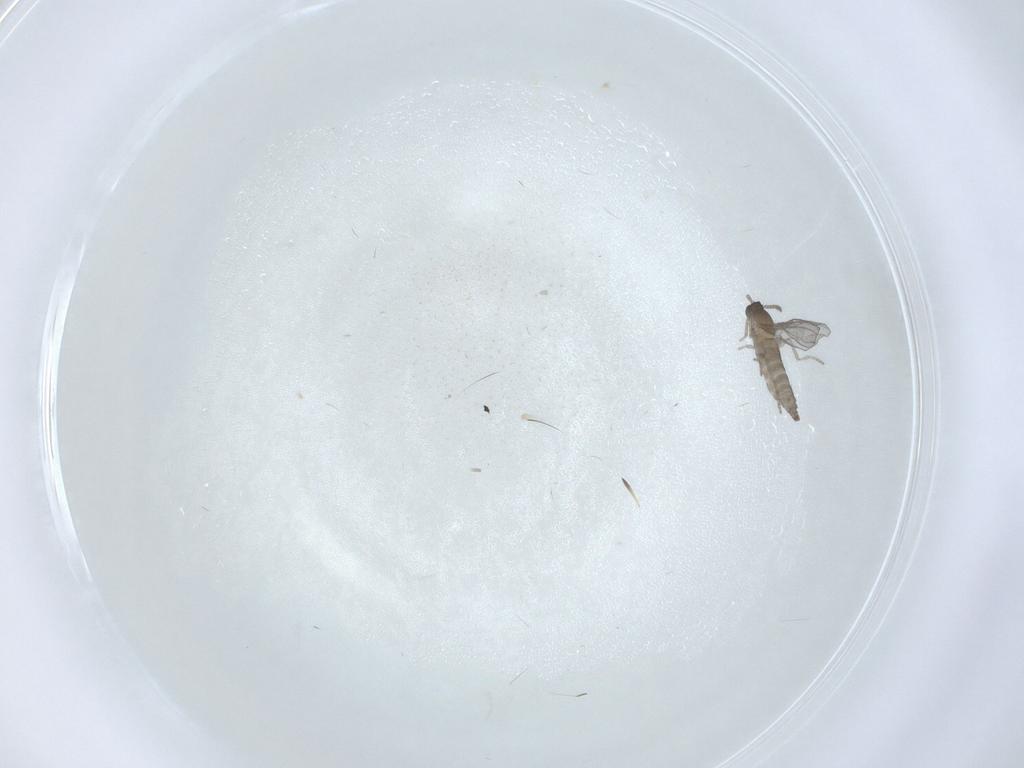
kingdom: Animalia
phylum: Arthropoda
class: Insecta
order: Diptera
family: Cecidomyiidae
